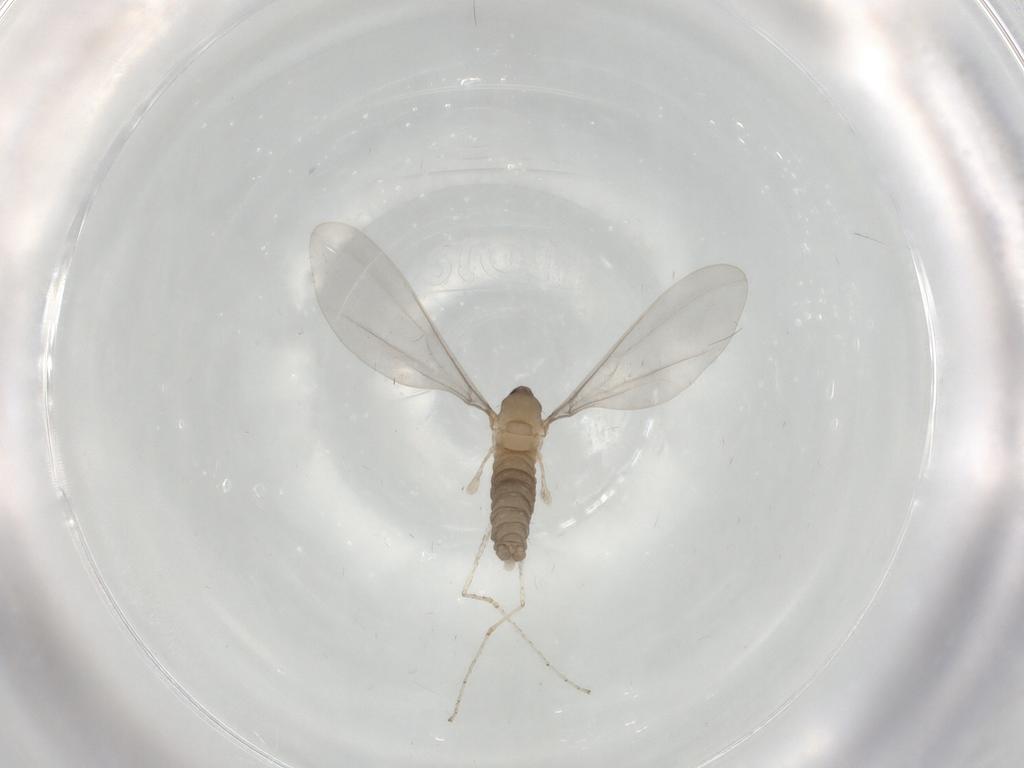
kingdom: Animalia
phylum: Arthropoda
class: Insecta
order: Diptera
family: Cecidomyiidae
